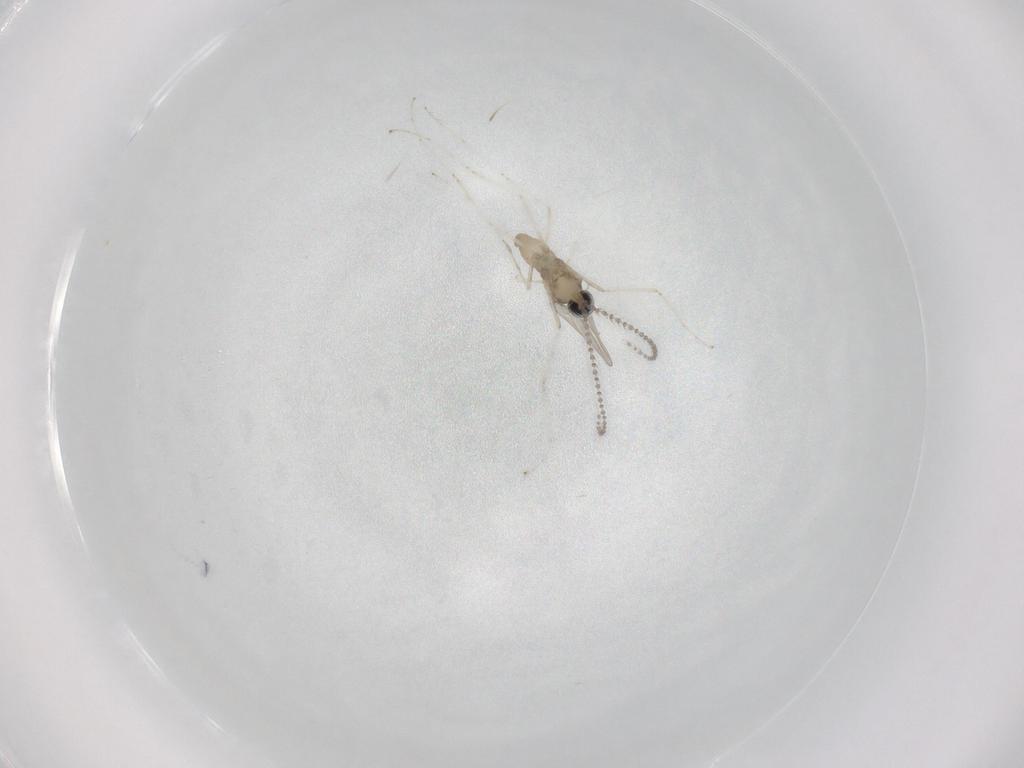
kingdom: Animalia
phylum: Arthropoda
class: Insecta
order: Diptera
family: Cecidomyiidae
